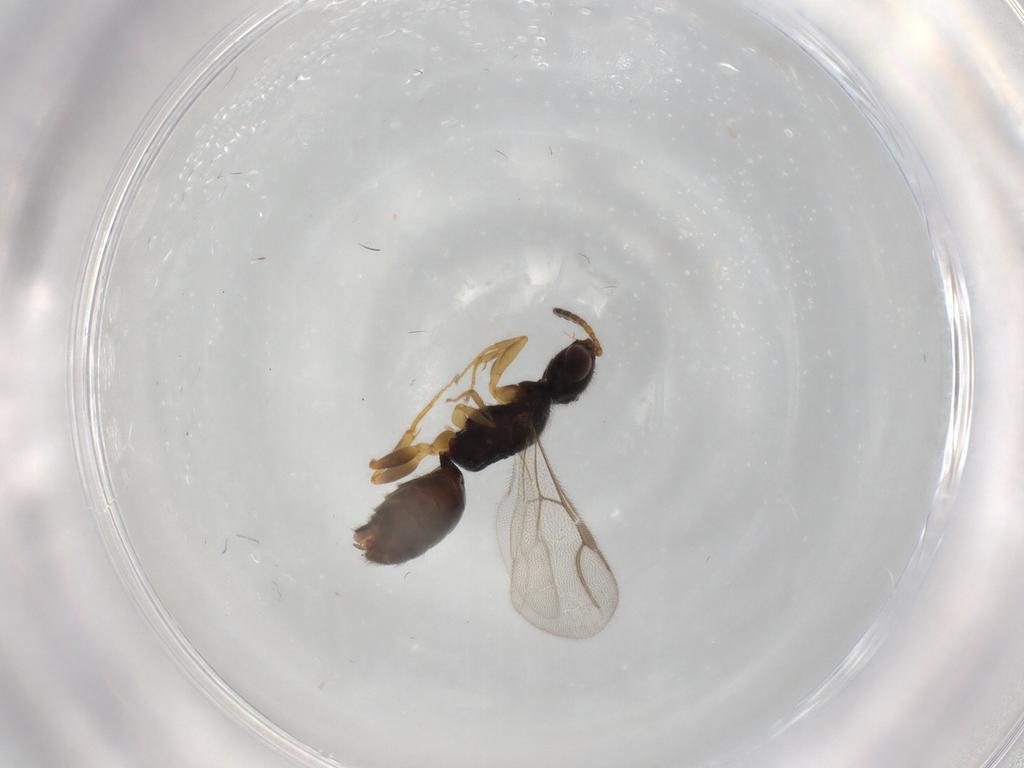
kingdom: Animalia
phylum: Arthropoda
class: Insecta
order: Hymenoptera
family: Bethylidae
